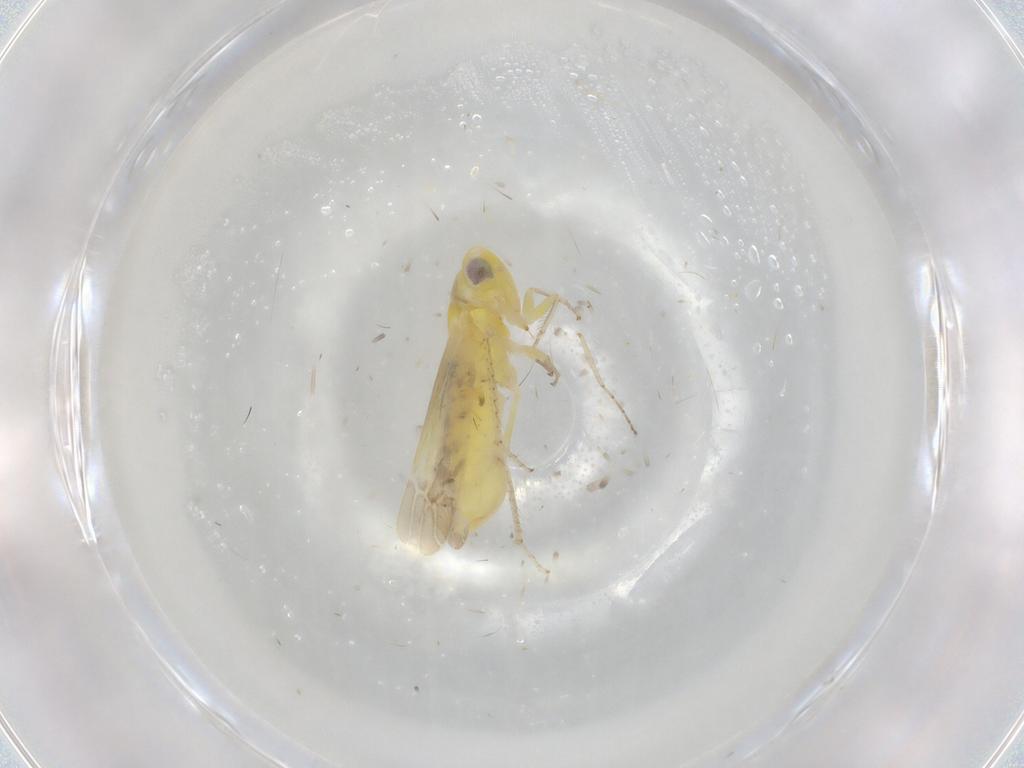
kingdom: Animalia
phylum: Arthropoda
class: Insecta
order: Hemiptera
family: Cicadellidae
